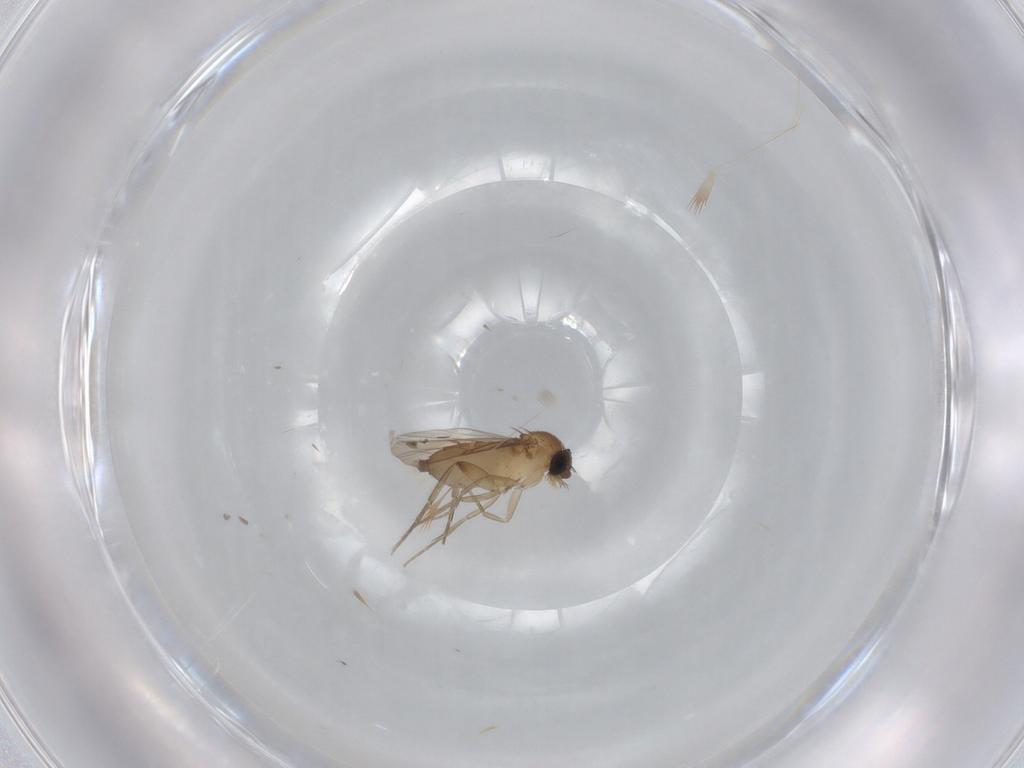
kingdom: Animalia
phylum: Arthropoda
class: Insecta
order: Diptera
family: Phoridae
